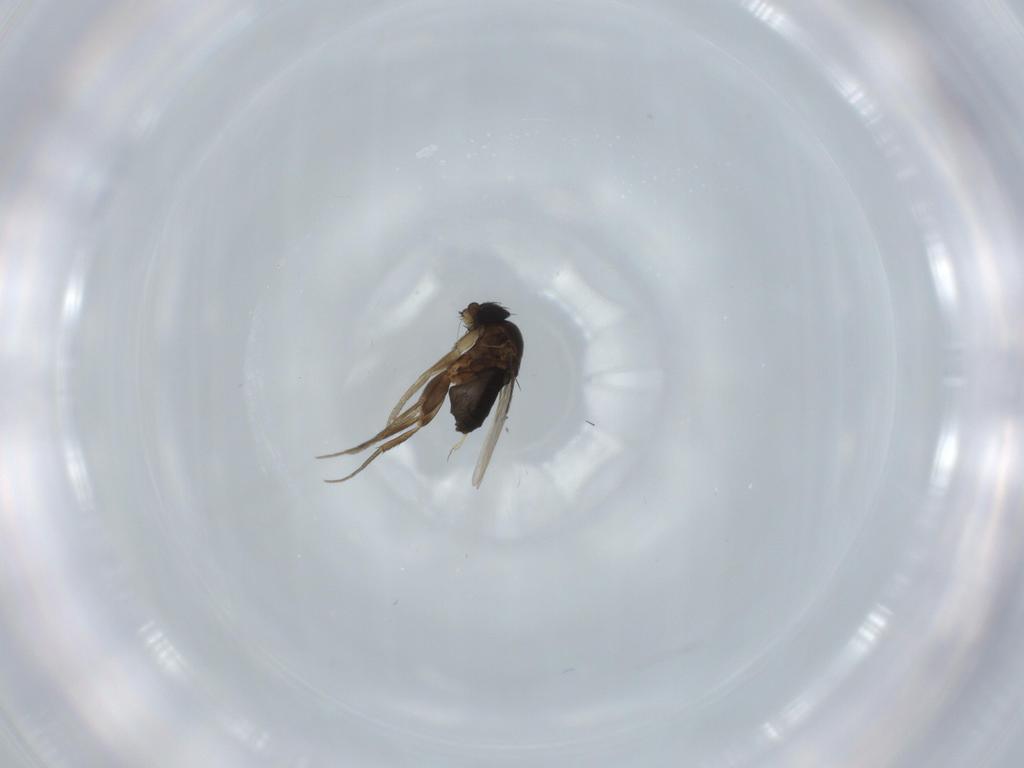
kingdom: Animalia
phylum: Arthropoda
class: Insecta
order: Diptera
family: Phoridae
